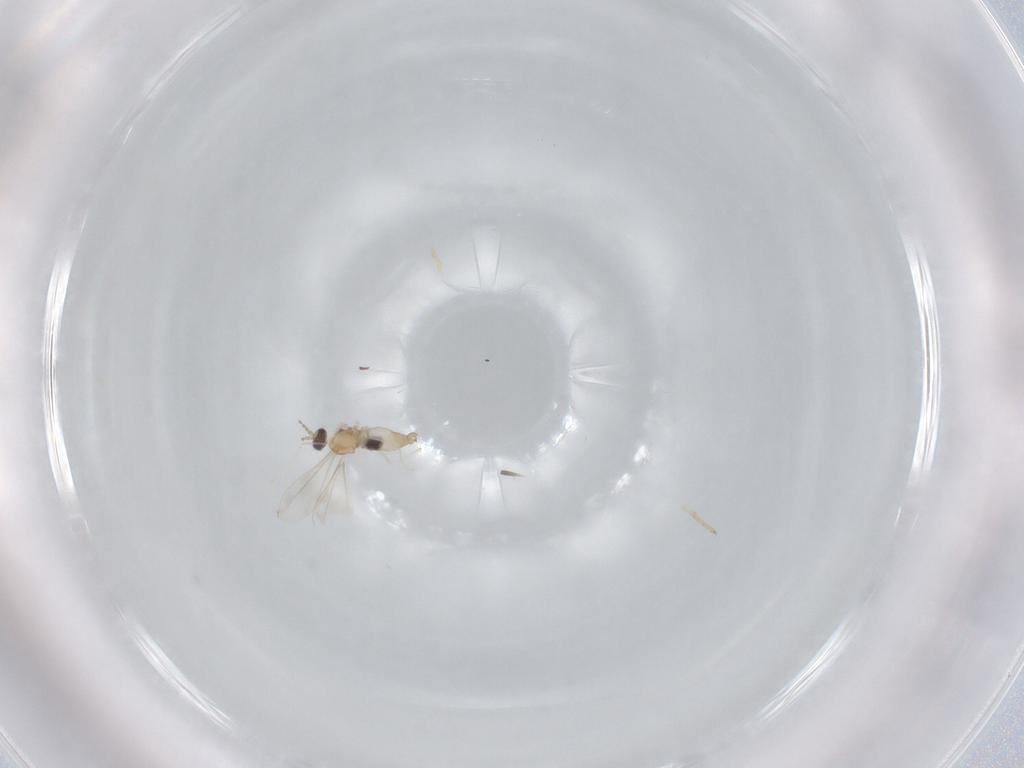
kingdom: Animalia
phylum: Arthropoda
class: Insecta
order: Diptera
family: Cecidomyiidae
